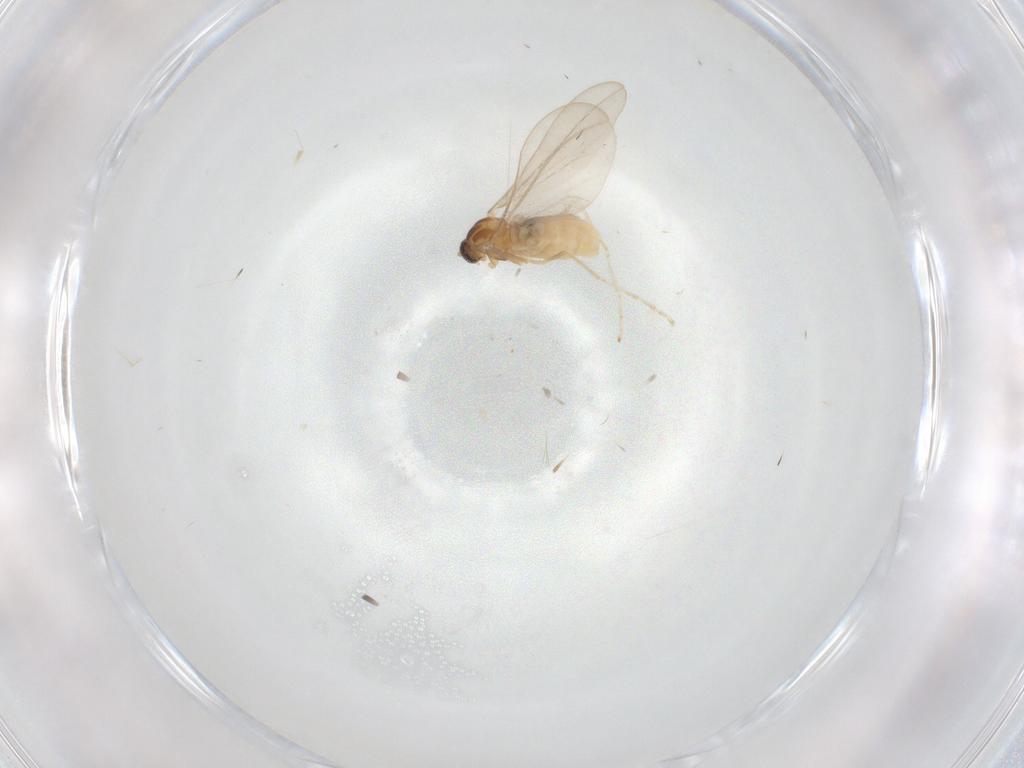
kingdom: Animalia
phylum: Arthropoda
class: Insecta
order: Diptera
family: Cecidomyiidae
